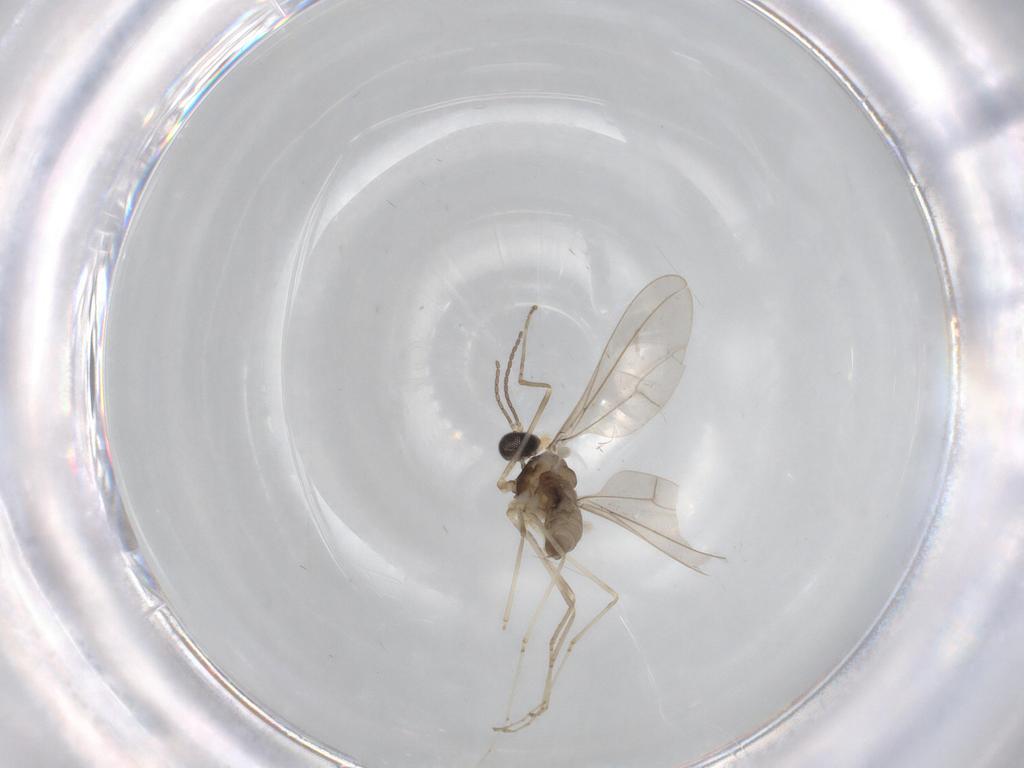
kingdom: Animalia
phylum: Arthropoda
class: Insecta
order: Diptera
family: Cecidomyiidae
